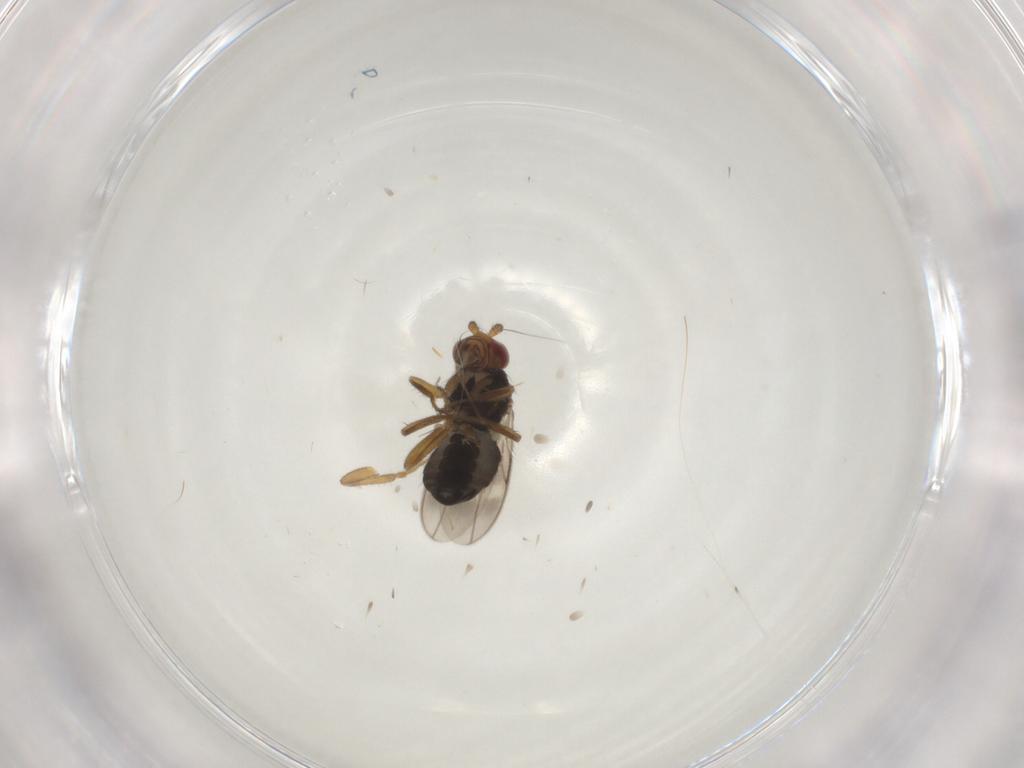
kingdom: Animalia
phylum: Arthropoda
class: Insecta
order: Diptera
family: Sphaeroceridae
